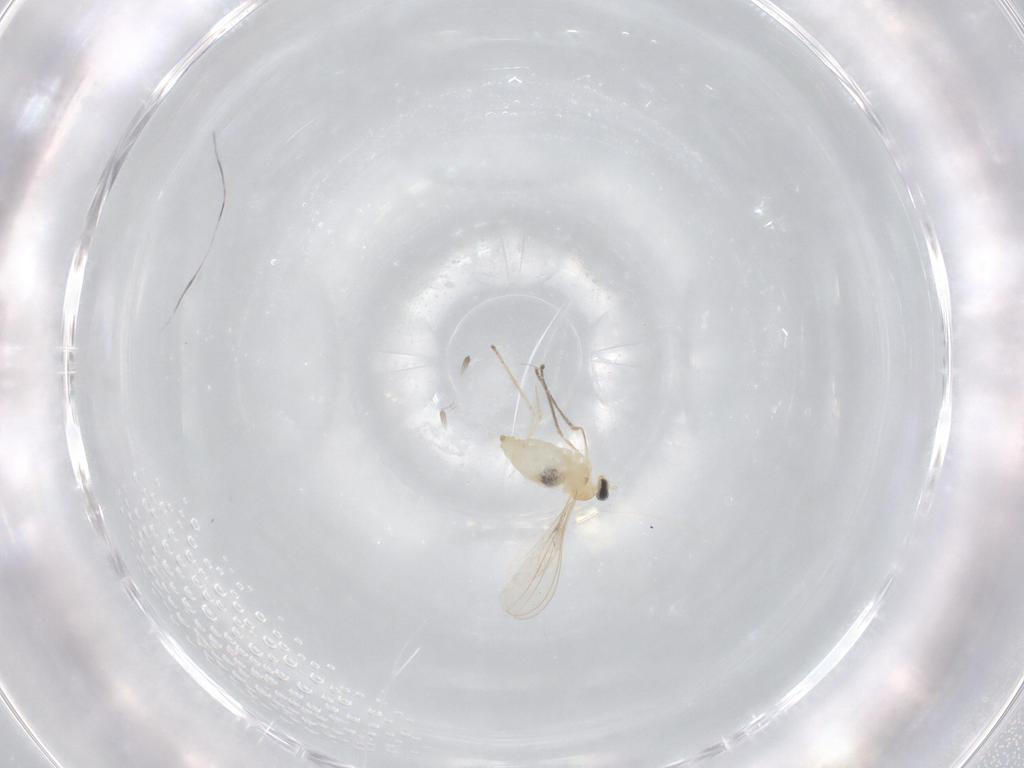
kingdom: Animalia
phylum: Arthropoda
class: Insecta
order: Diptera
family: Cecidomyiidae
